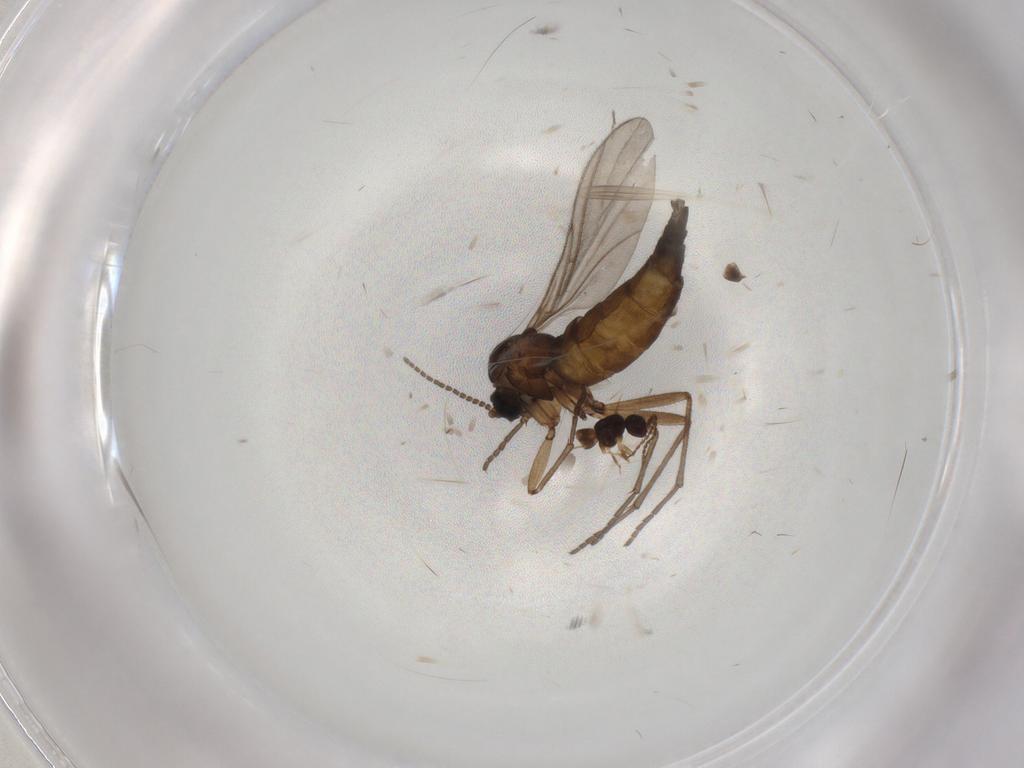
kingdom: Animalia
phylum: Arthropoda
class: Insecta
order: Diptera
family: Sciaridae
